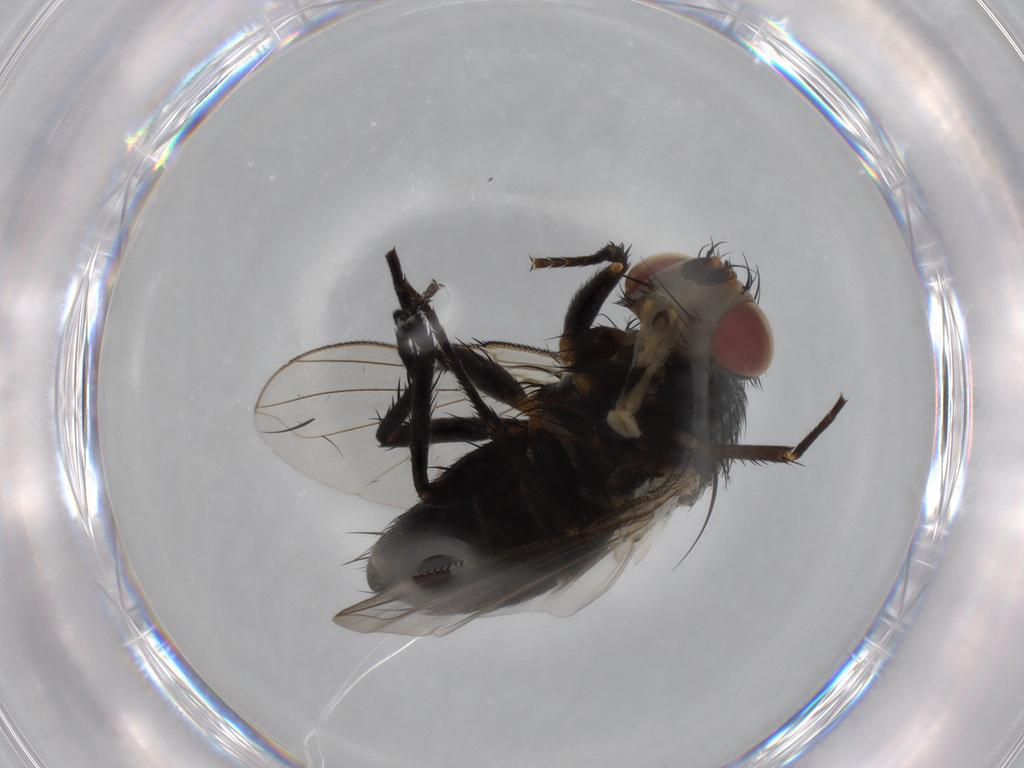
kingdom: Animalia
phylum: Arthropoda
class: Insecta
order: Diptera
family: Tachinidae
